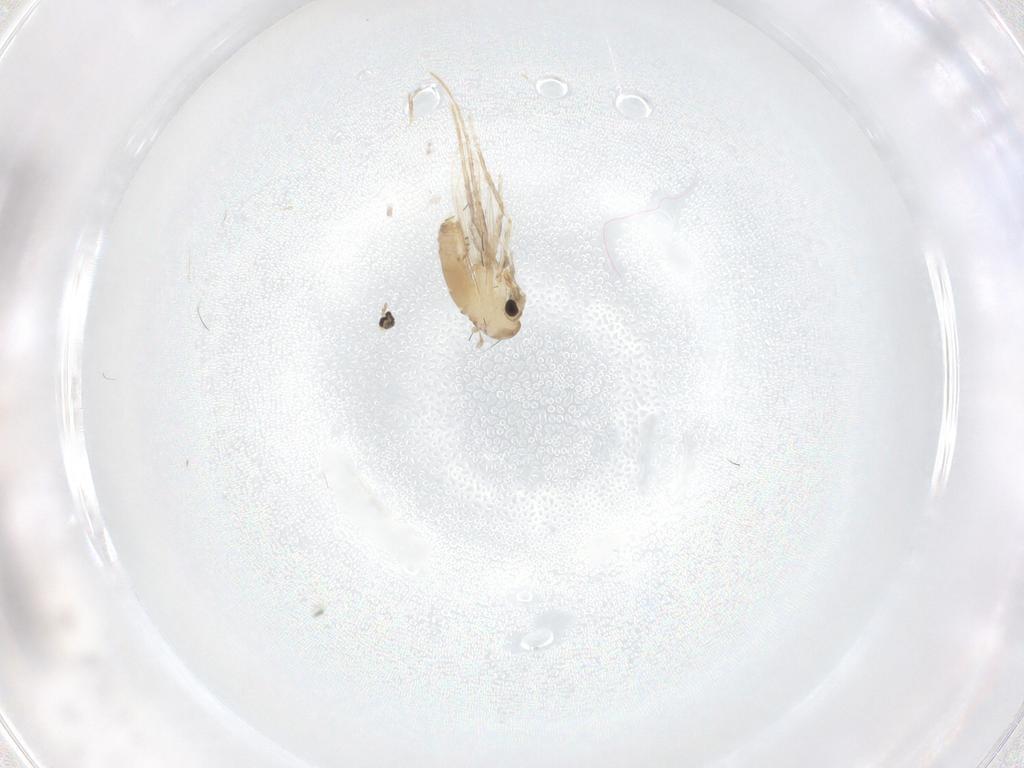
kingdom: Animalia
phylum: Arthropoda
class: Insecta
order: Diptera
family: Psychodidae
